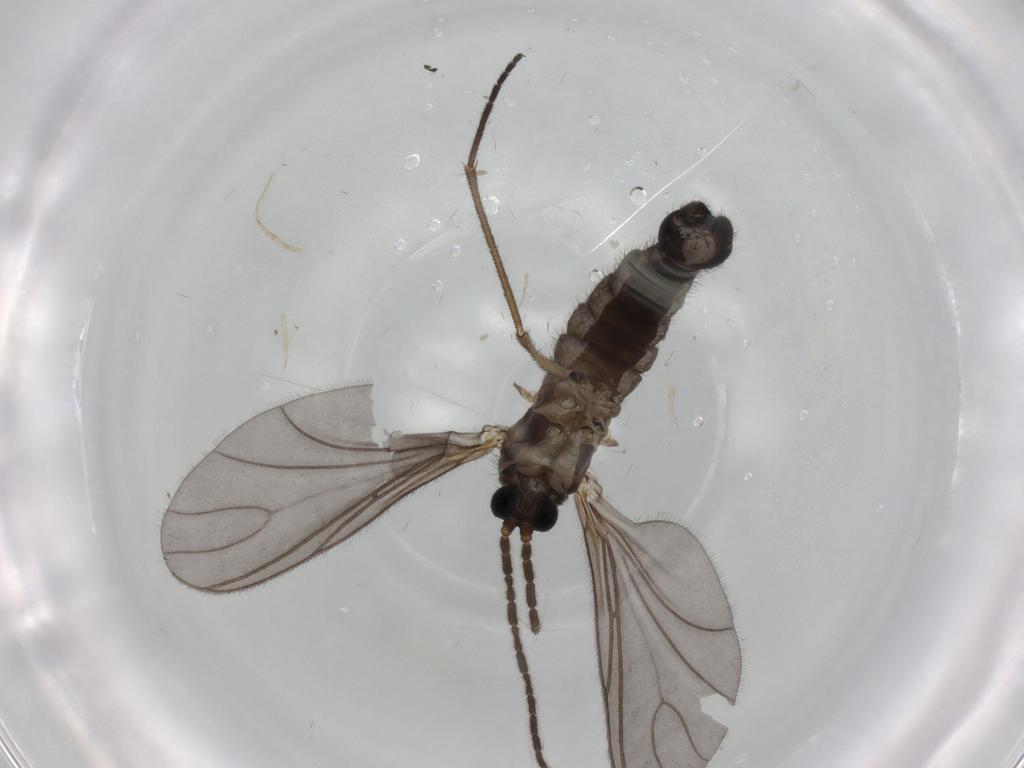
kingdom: Animalia
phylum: Arthropoda
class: Insecta
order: Diptera
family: Sciaridae
